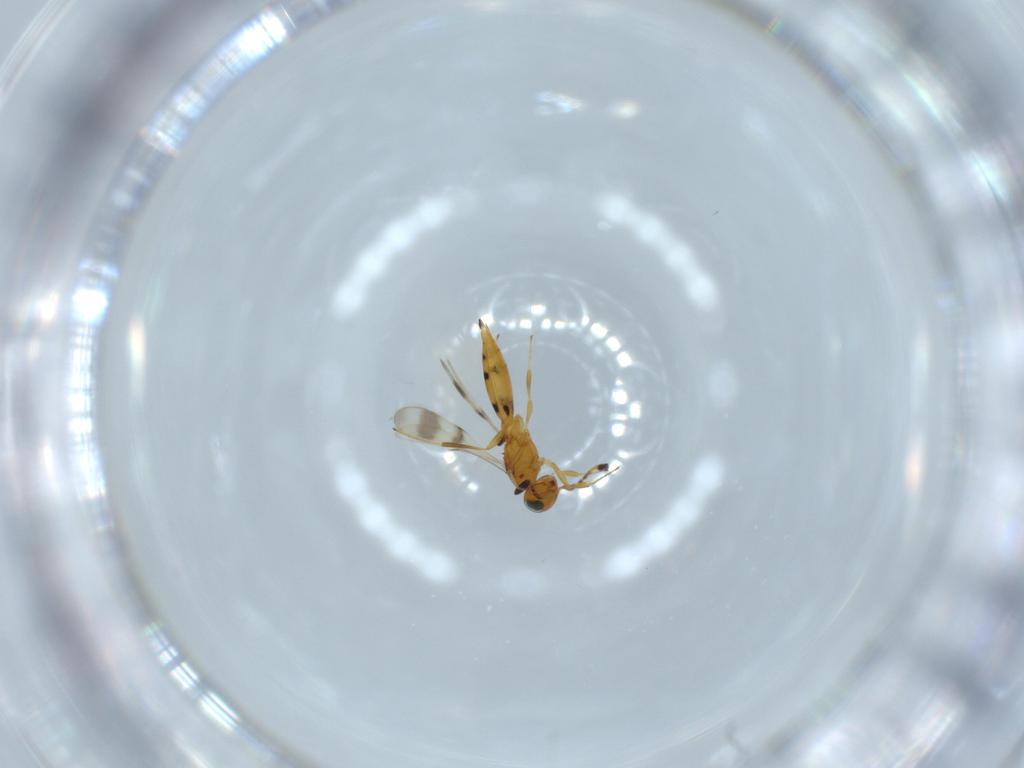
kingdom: Animalia
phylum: Arthropoda
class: Insecta
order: Hymenoptera
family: Scelionidae
